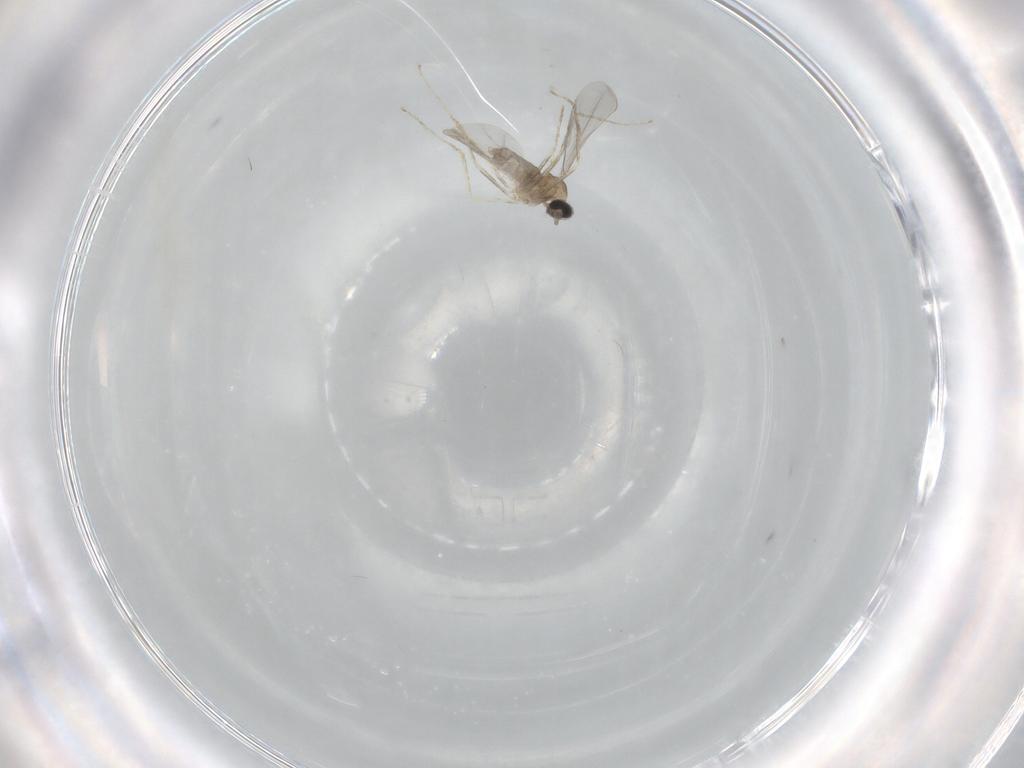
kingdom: Animalia
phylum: Arthropoda
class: Insecta
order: Diptera
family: Cecidomyiidae
